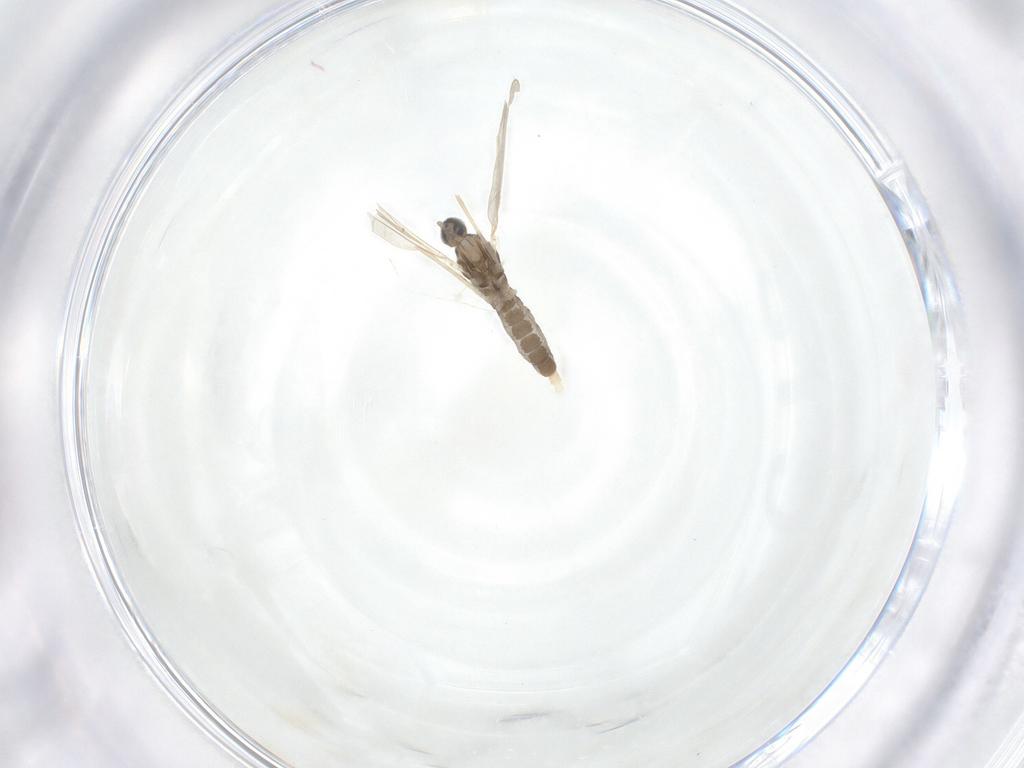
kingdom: Animalia
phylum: Arthropoda
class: Insecta
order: Diptera
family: Cecidomyiidae
